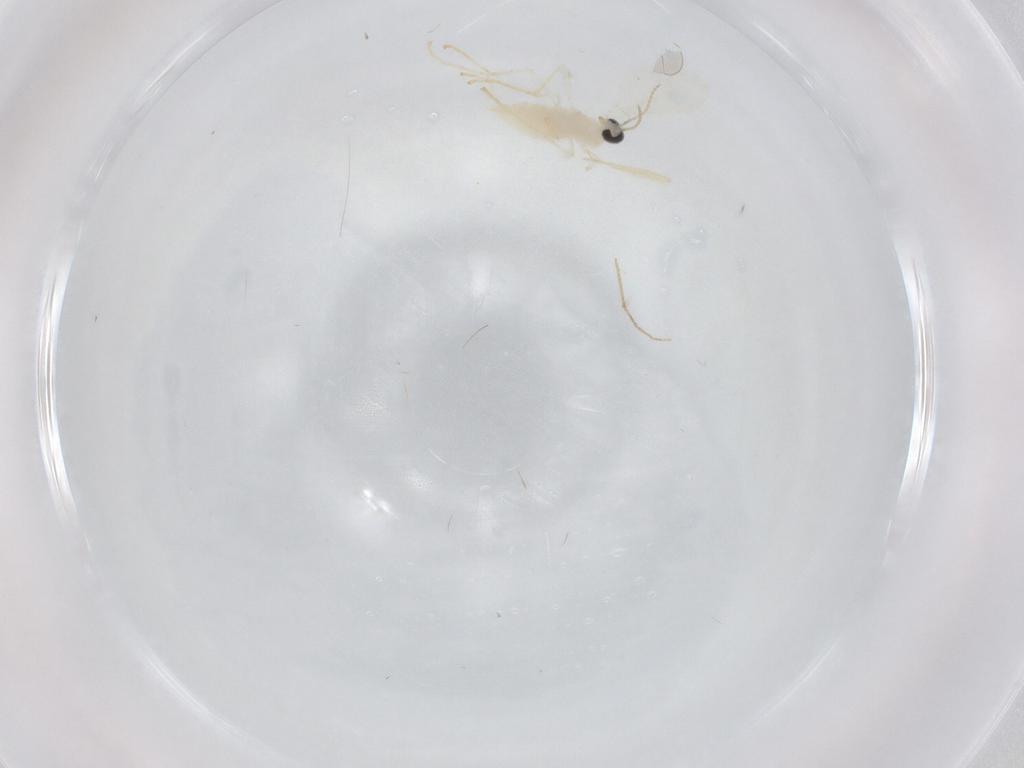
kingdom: Animalia
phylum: Arthropoda
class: Insecta
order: Diptera
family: Cecidomyiidae
